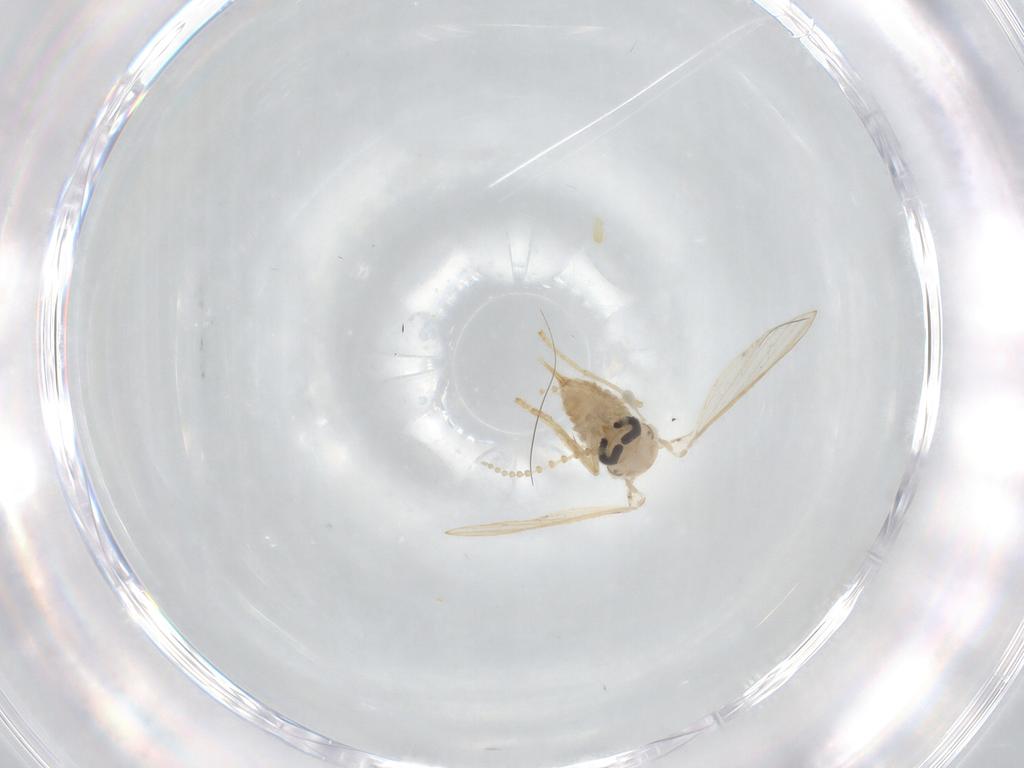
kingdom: Animalia
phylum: Arthropoda
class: Insecta
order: Diptera
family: Psychodidae
